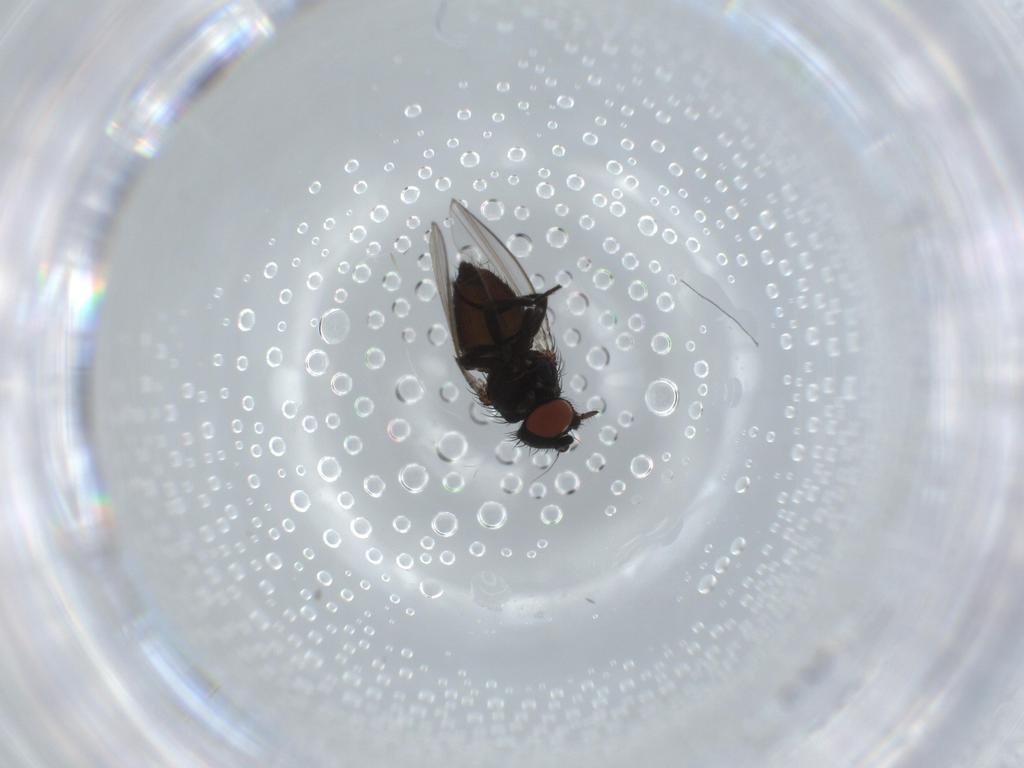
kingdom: Animalia
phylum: Arthropoda
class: Insecta
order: Diptera
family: Milichiidae
